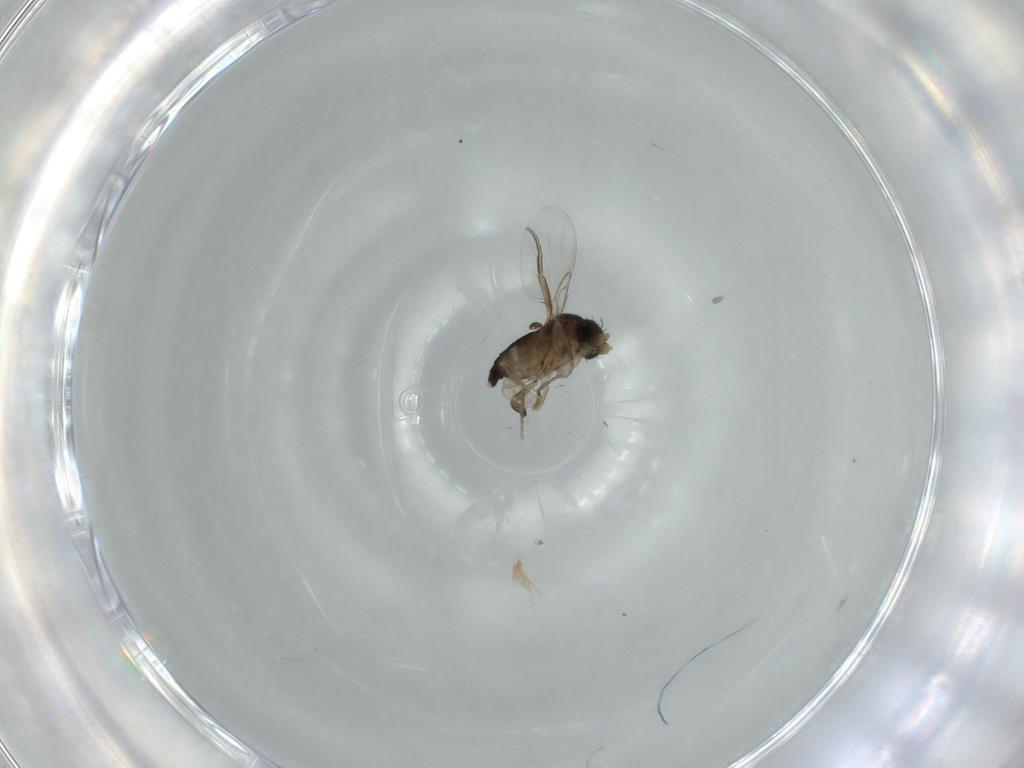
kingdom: Animalia
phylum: Arthropoda
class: Insecta
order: Diptera
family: Phoridae
